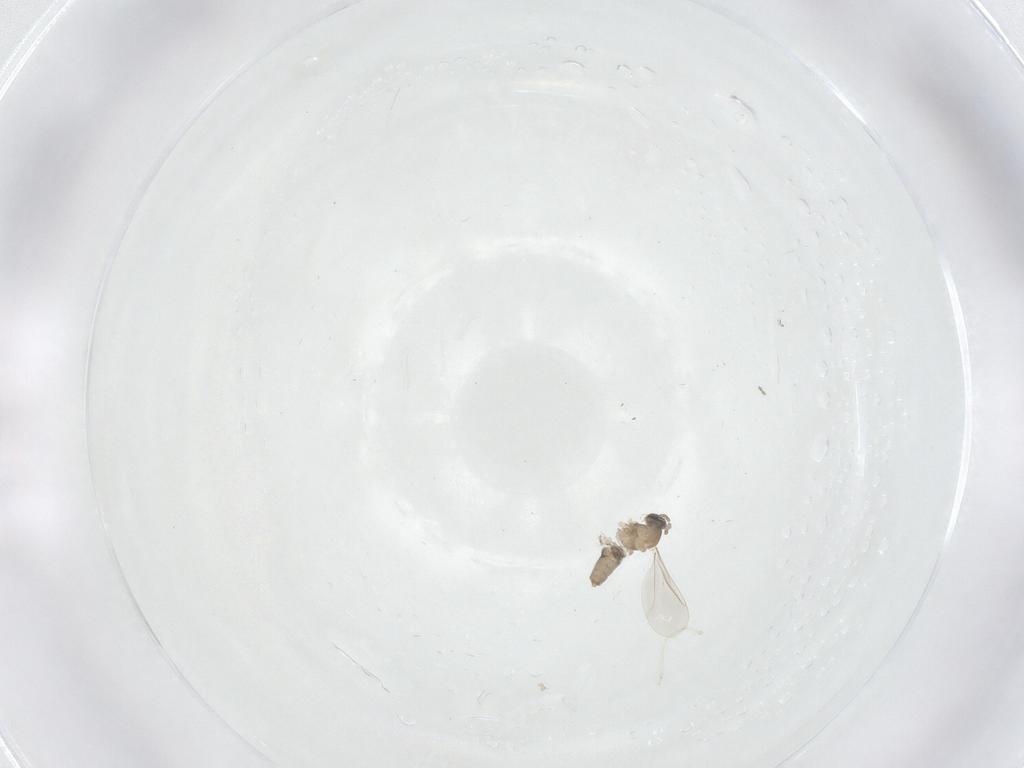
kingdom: Animalia
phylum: Arthropoda
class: Insecta
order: Diptera
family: Cecidomyiidae
